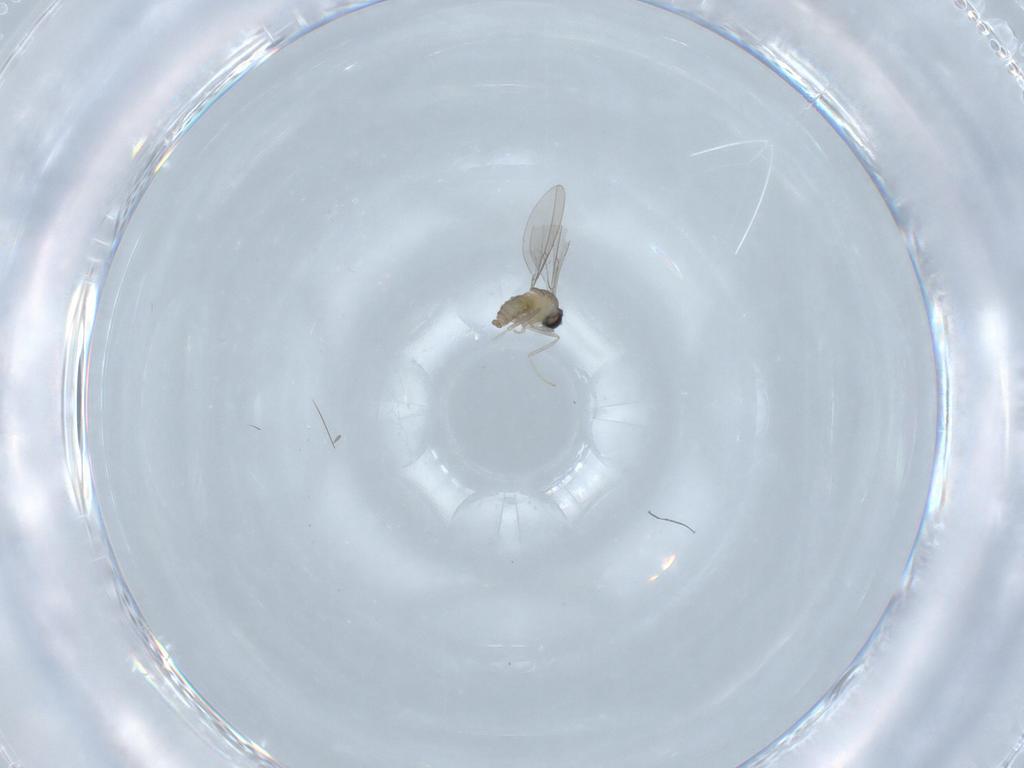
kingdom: Animalia
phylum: Arthropoda
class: Insecta
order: Diptera
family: Cecidomyiidae
